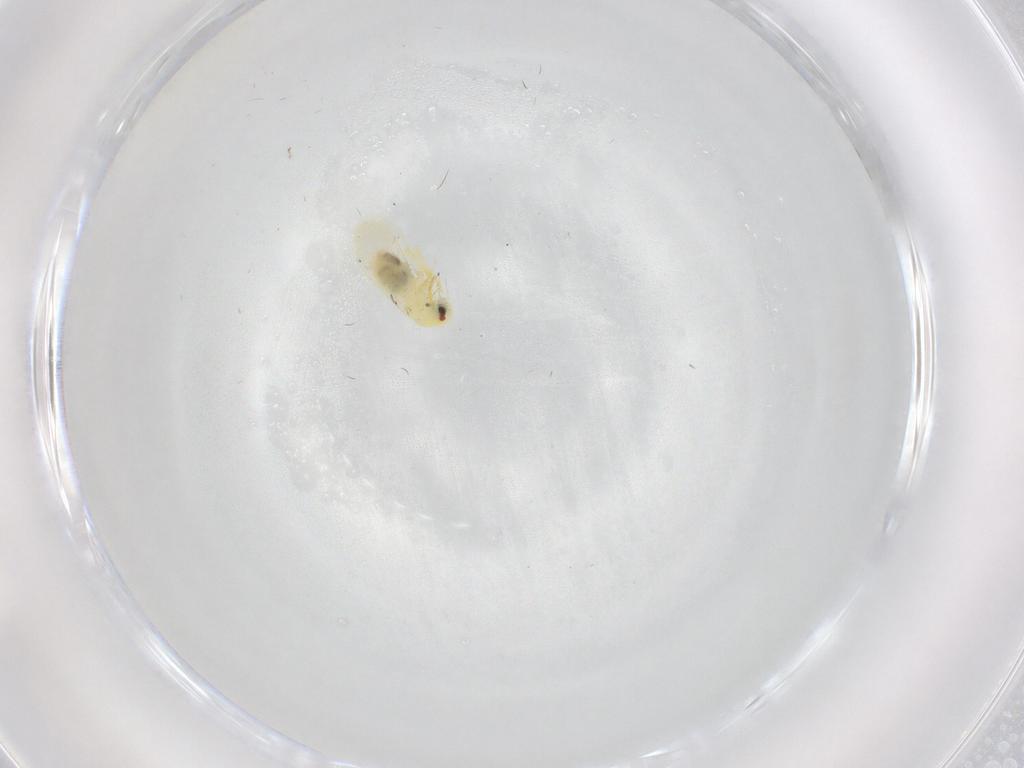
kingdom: Animalia
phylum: Arthropoda
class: Insecta
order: Hemiptera
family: Aleyrodidae
